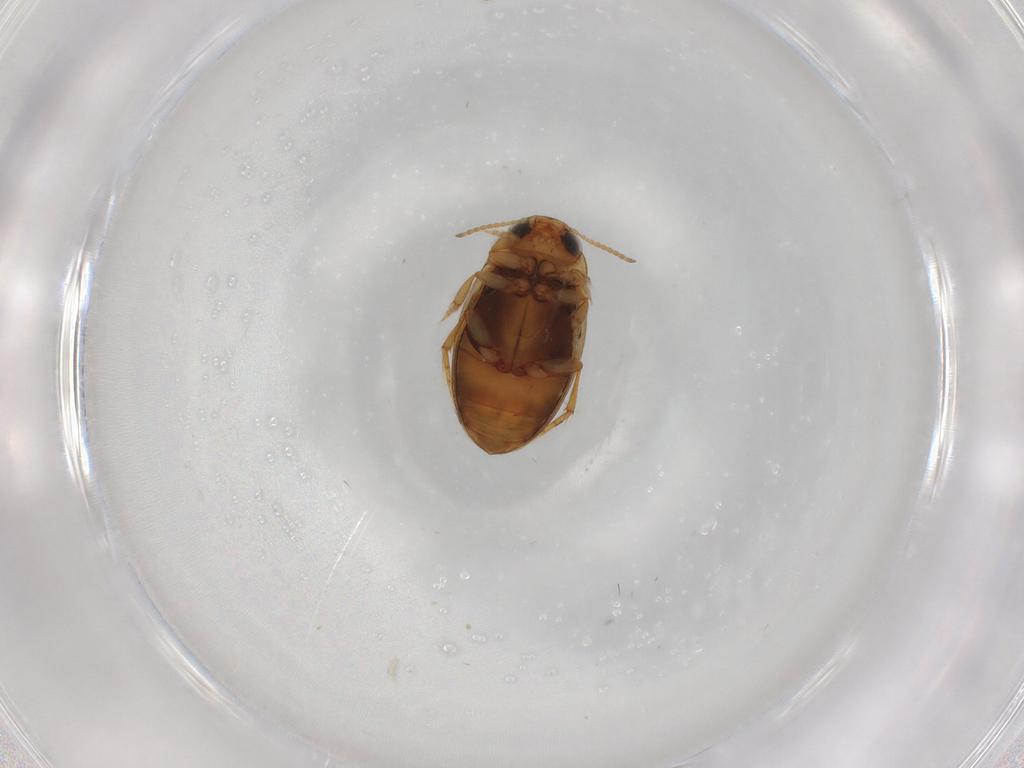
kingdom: Animalia
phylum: Arthropoda
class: Insecta
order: Coleoptera
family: Dytiscidae
